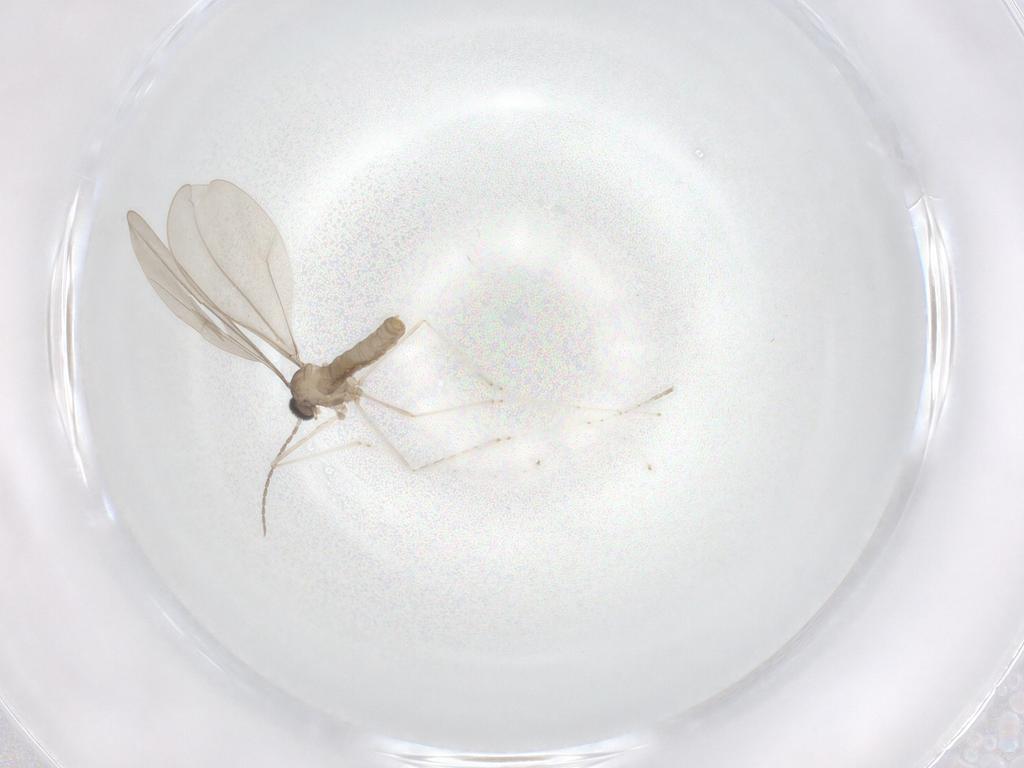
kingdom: Animalia
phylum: Arthropoda
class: Insecta
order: Diptera
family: Cecidomyiidae
